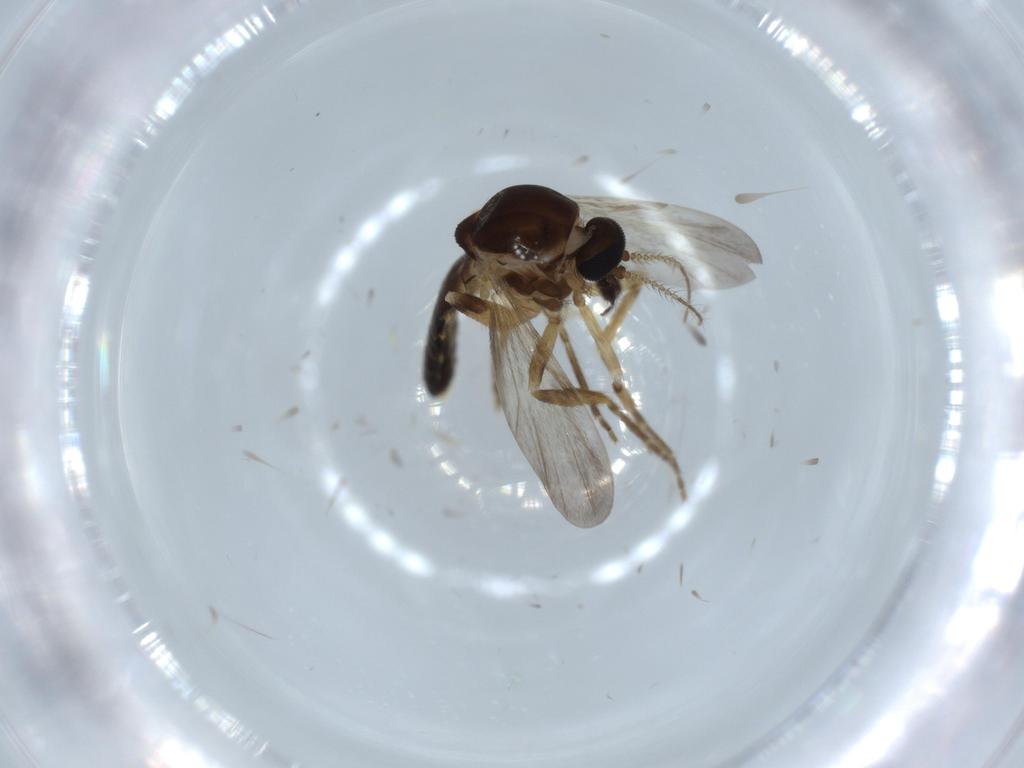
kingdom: Animalia
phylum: Arthropoda
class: Insecta
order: Diptera
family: Ceratopogonidae
